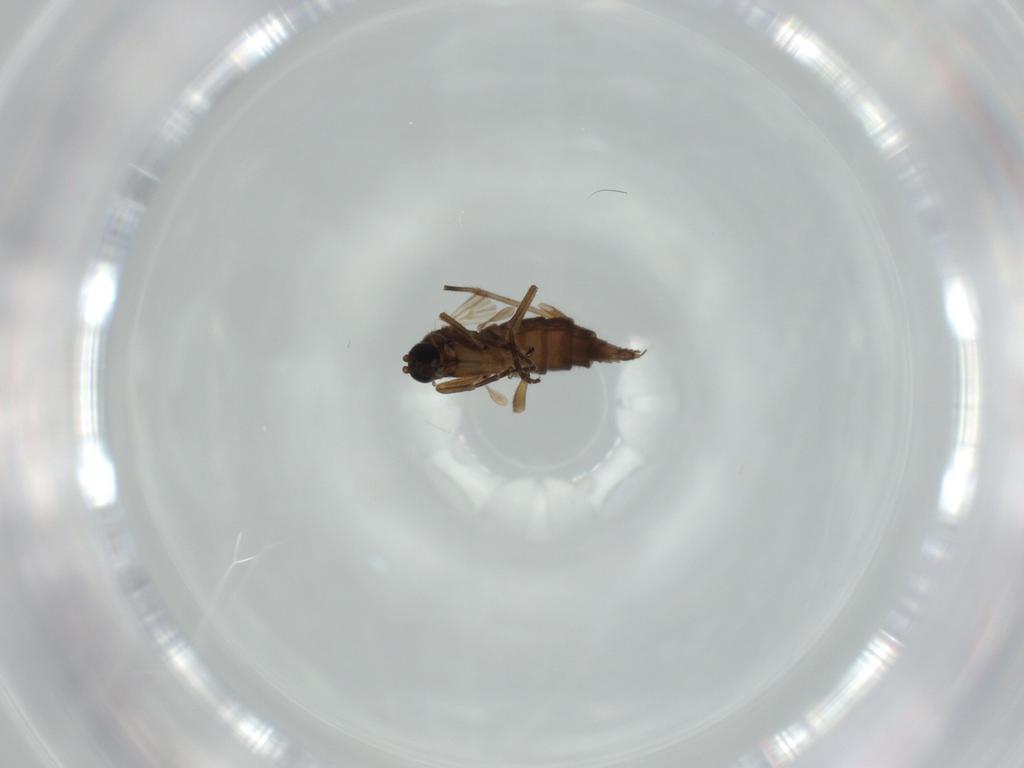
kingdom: Animalia
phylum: Arthropoda
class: Insecta
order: Diptera
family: Sciaridae
